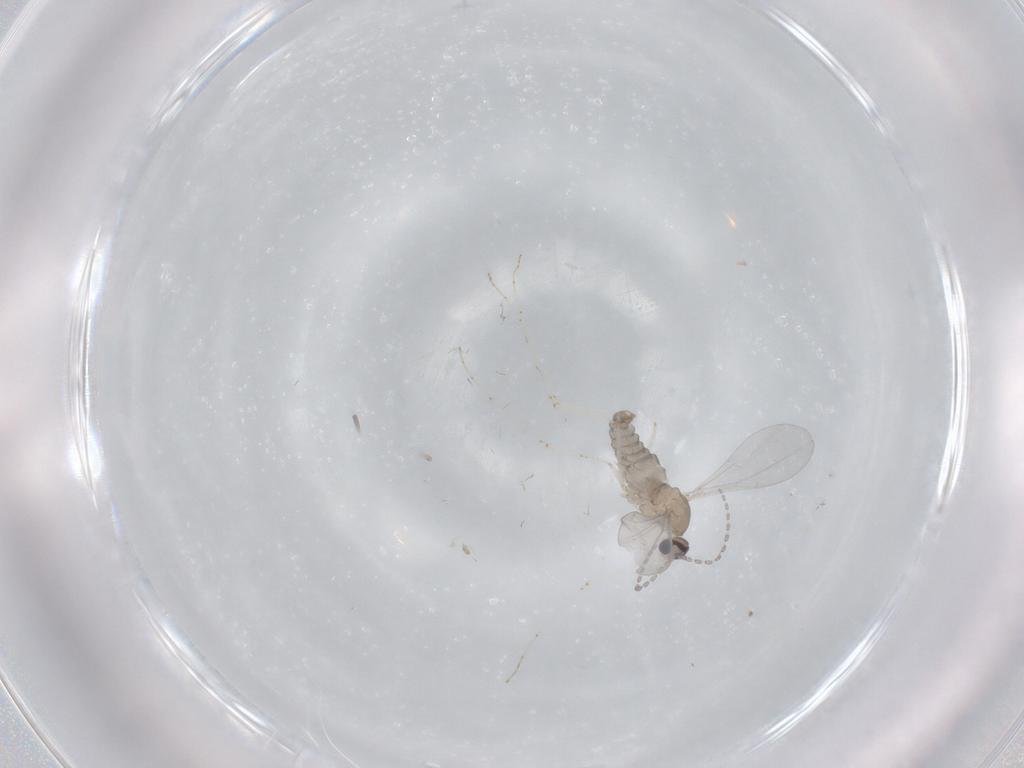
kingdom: Animalia
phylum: Arthropoda
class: Insecta
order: Diptera
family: Cecidomyiidae
